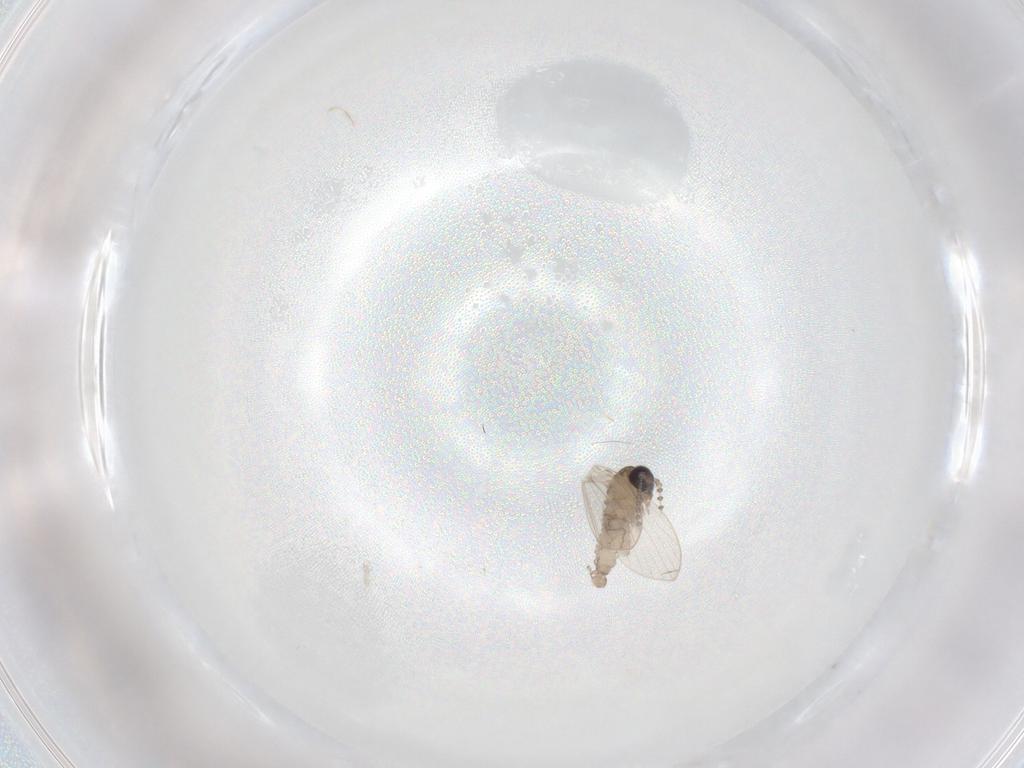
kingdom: Animalia
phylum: Arthropoda
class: Insecta
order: Diptera
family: Psychodidae
